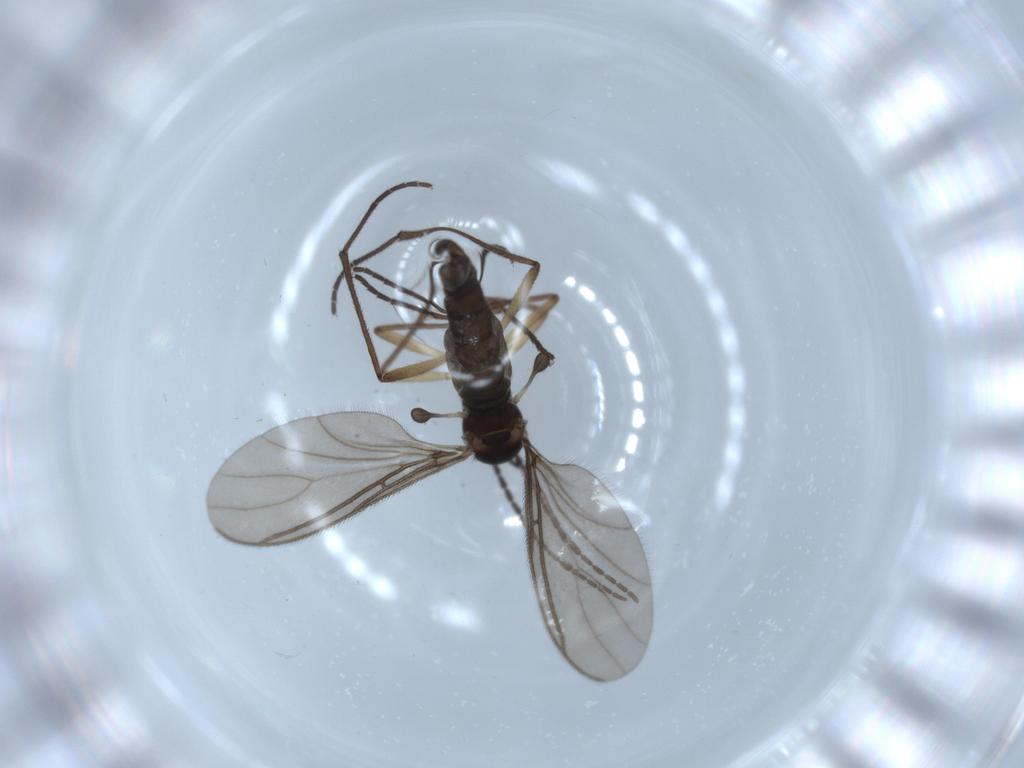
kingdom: Animalia
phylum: Arthropoda
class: Insecta
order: Diptera
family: Sciaridae
